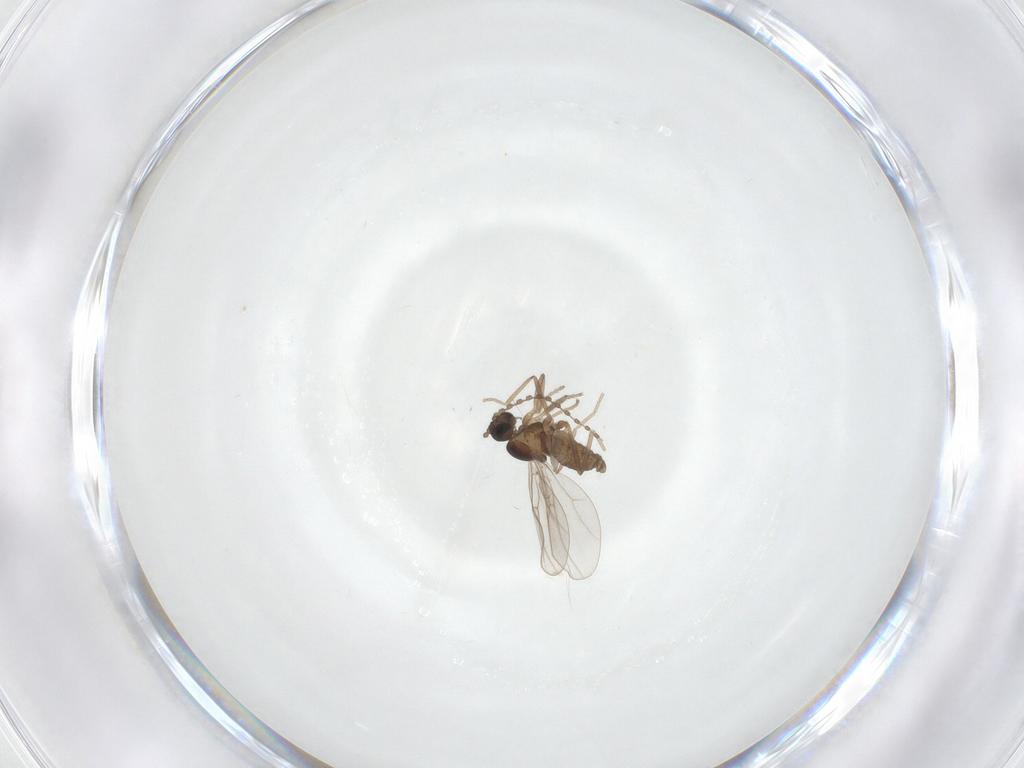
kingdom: Animalia
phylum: Arthropoda
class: Insecta
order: Diptera
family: Cecidomyiidae
